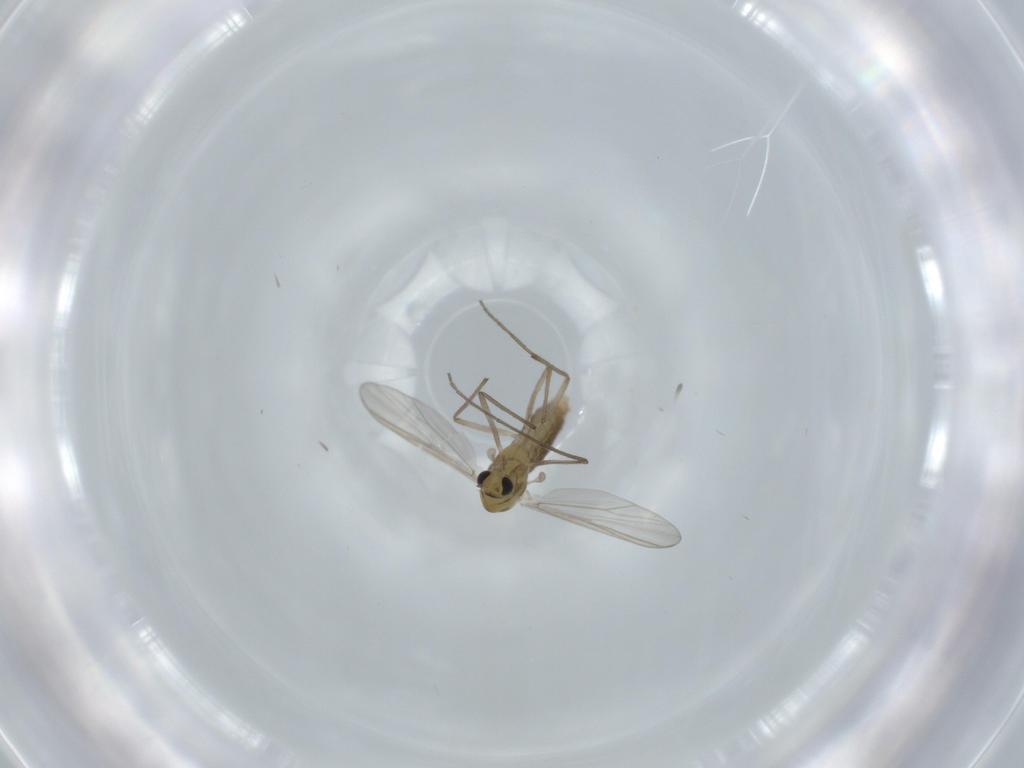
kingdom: Animalia
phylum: Arthropoda
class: Insecta
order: Diptera
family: Chironomidae
